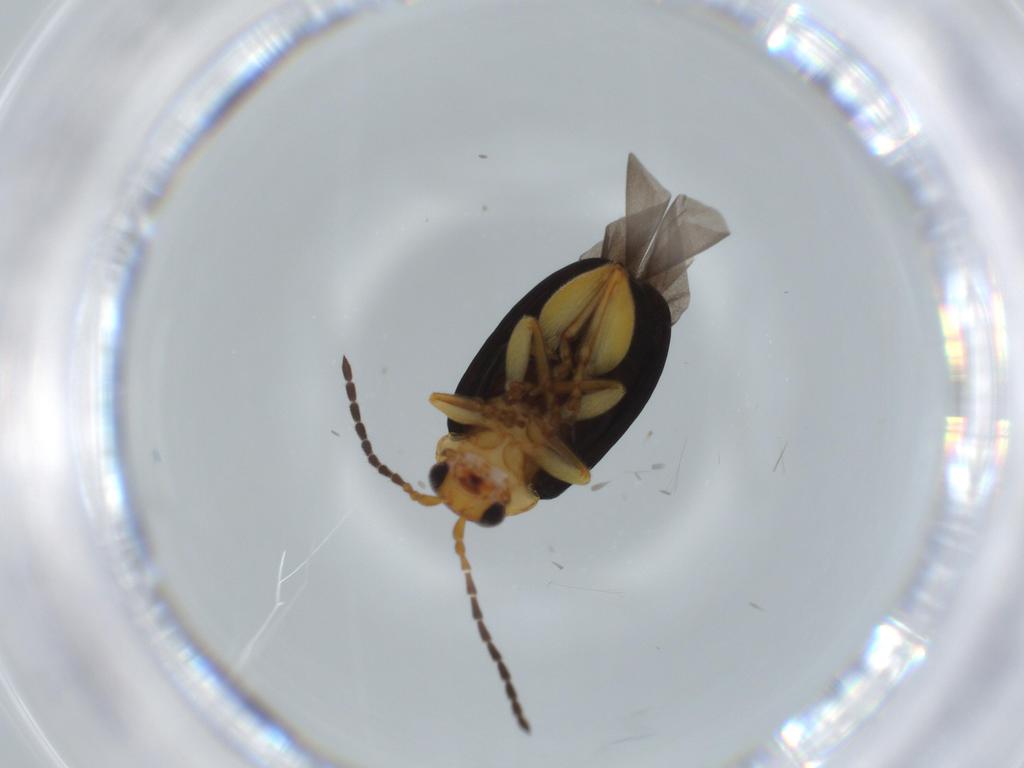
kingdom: Animalia
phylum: Arthropoda
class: Insecta
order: Coleoptera
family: Chrysomelidae
